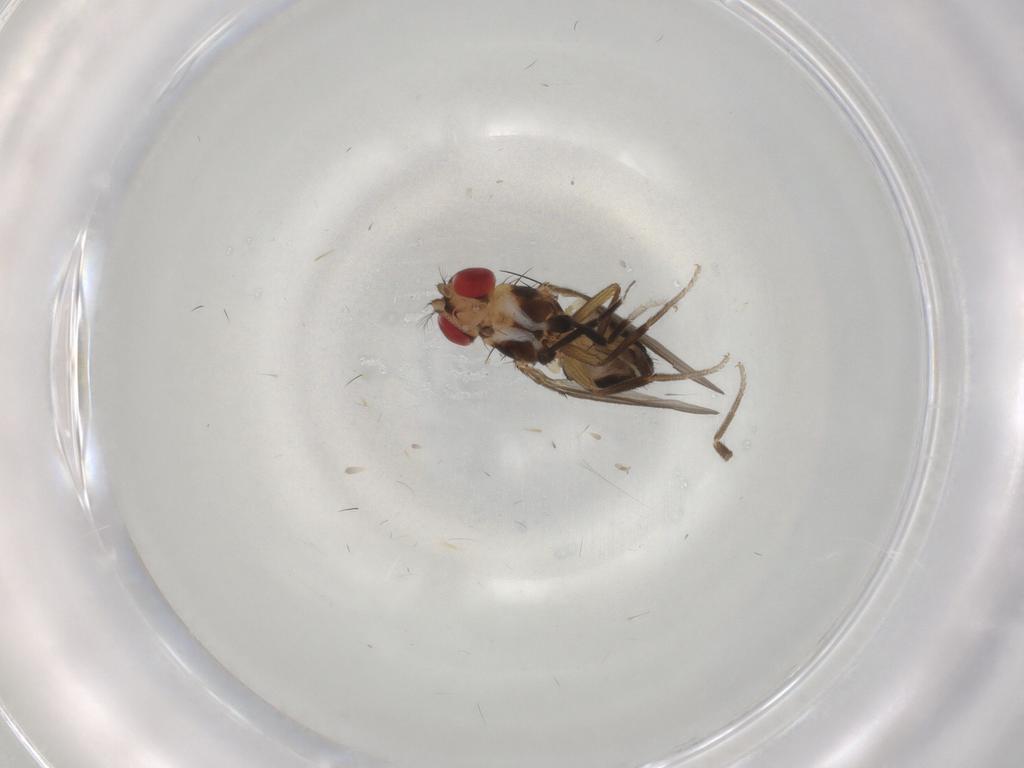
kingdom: Animalia
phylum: Arthropoda
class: Insecta
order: Diptera
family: Drosophilidae
